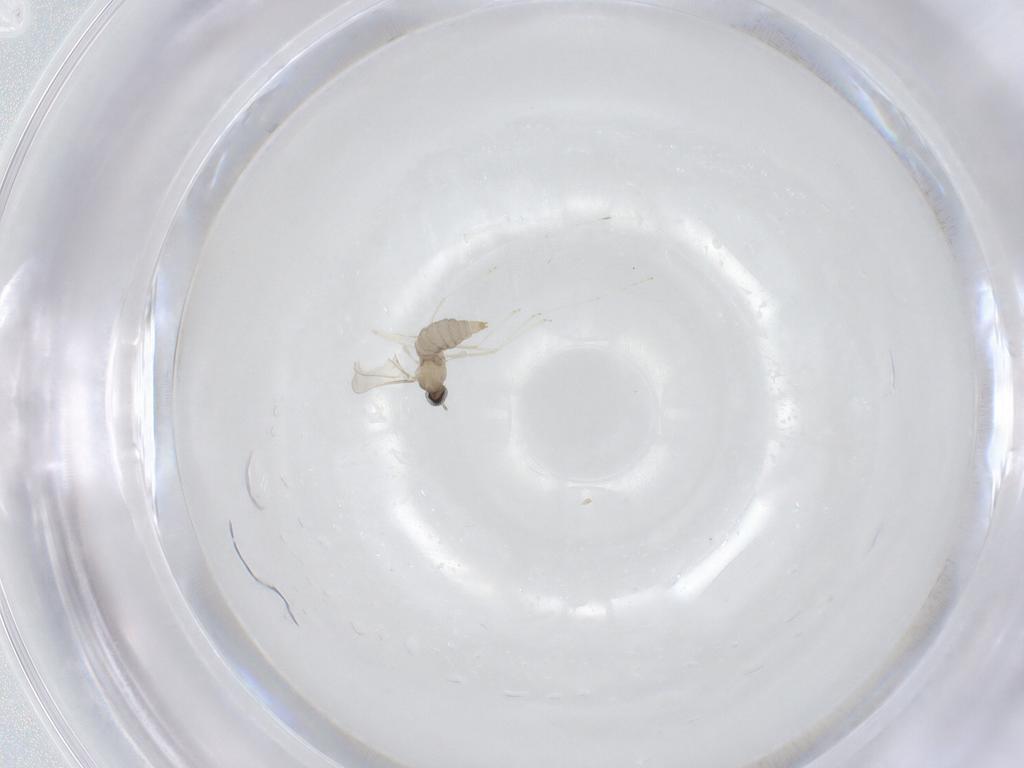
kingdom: Animalia
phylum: Arthropoda
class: Insecta
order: Diptera
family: Cecidomyiidae
